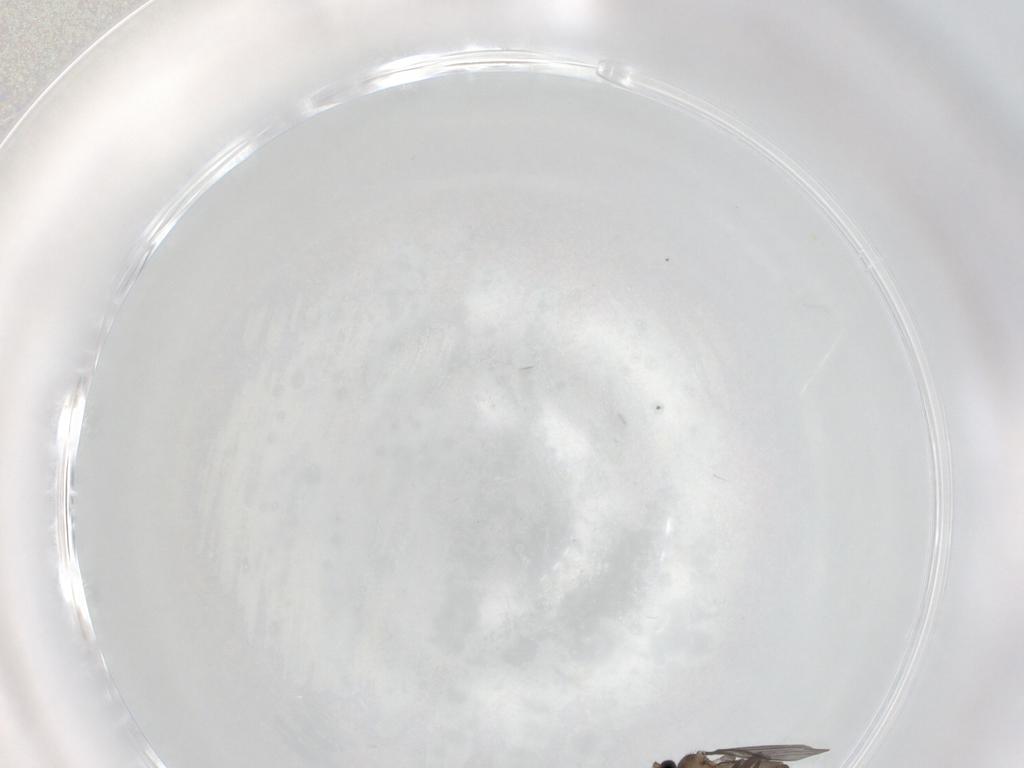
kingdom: Animalia
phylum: Arthropoda
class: Insecta
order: Diptera
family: Phoridae
